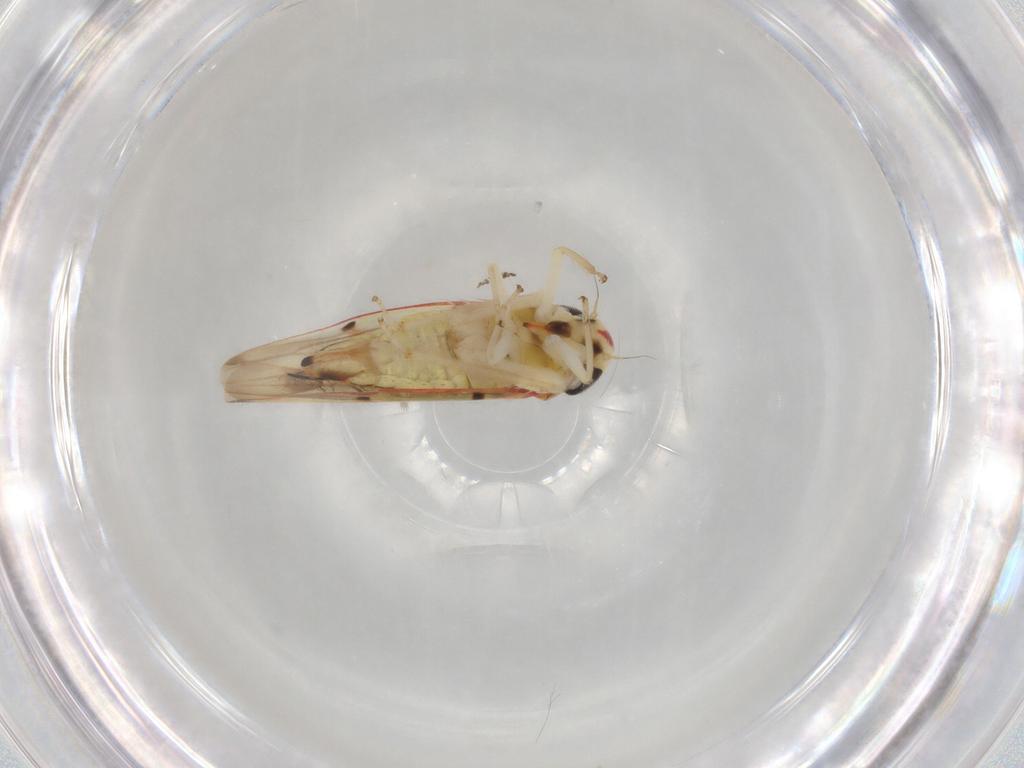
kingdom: Animalia
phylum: Arthropoda
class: Insecta
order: Hemiptera
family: Cicadellidae
